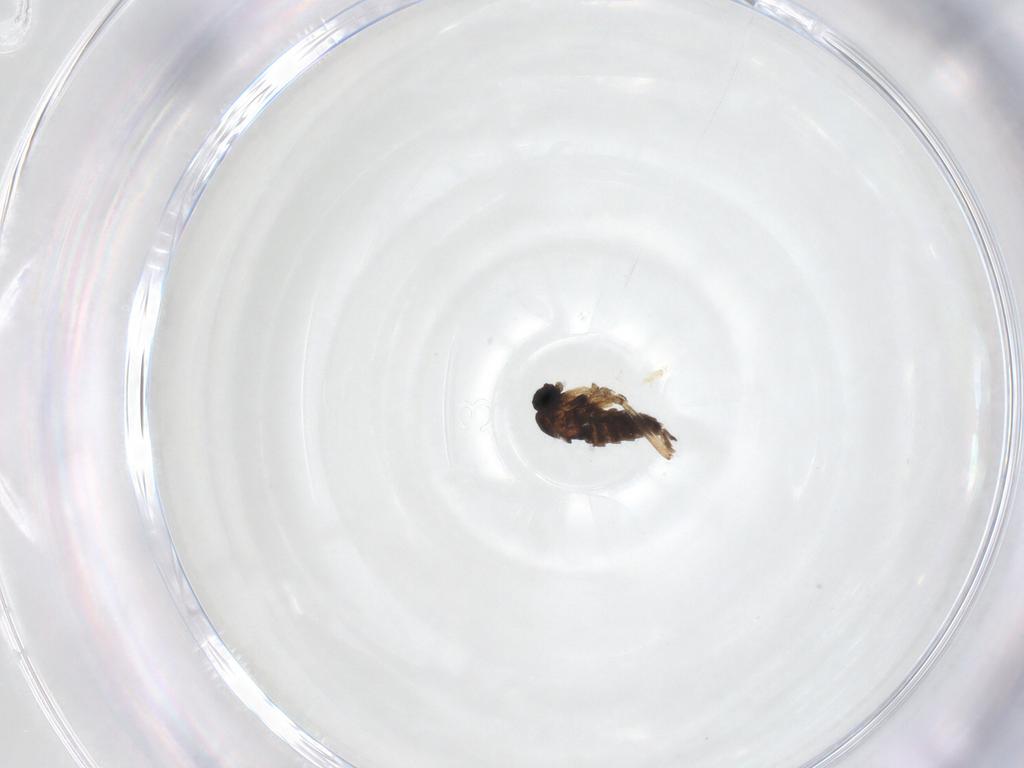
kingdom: Animalia
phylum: Arthropoda
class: Insecta
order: Diptera
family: Sciaridae
